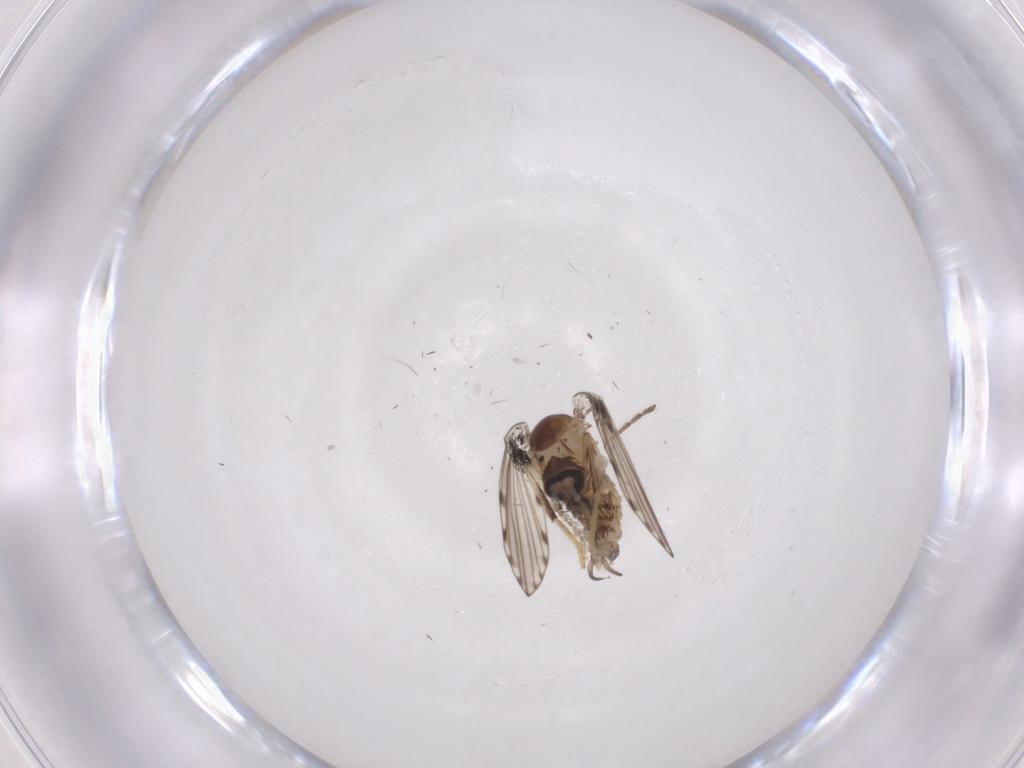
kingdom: Animalia
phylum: Arthropoda
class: Insecta
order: Diptera
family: Limoniidae
